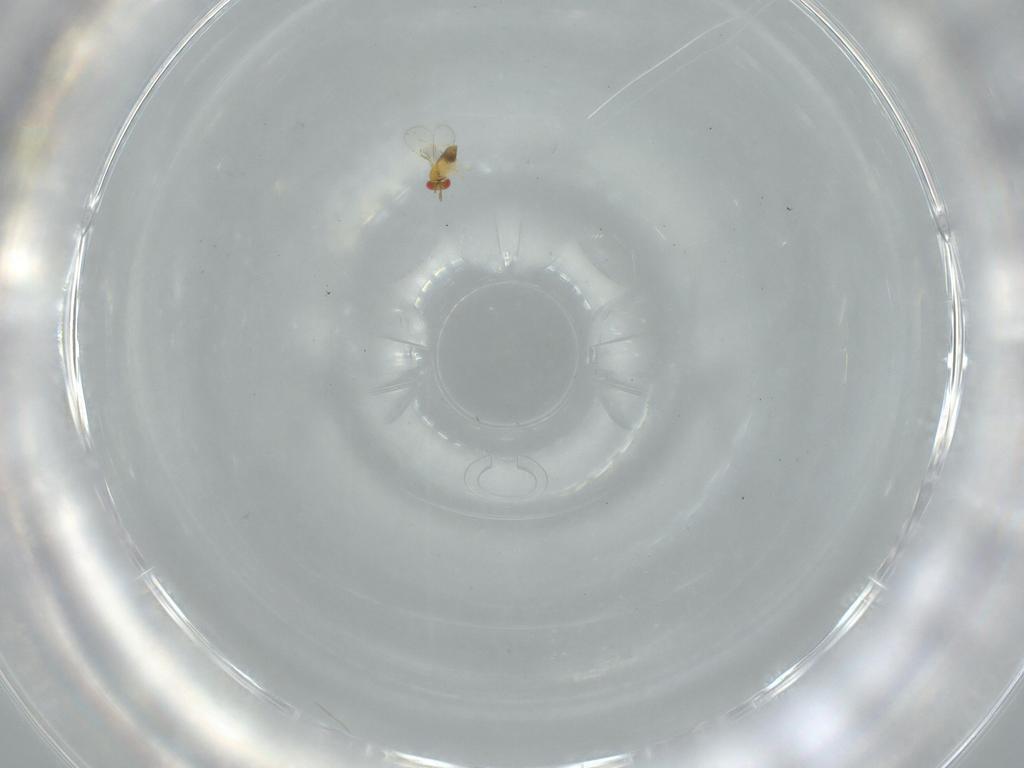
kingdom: Animalia
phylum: Arthropoda
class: Insecta
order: Hymenoptera
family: Trichogrammatidae
